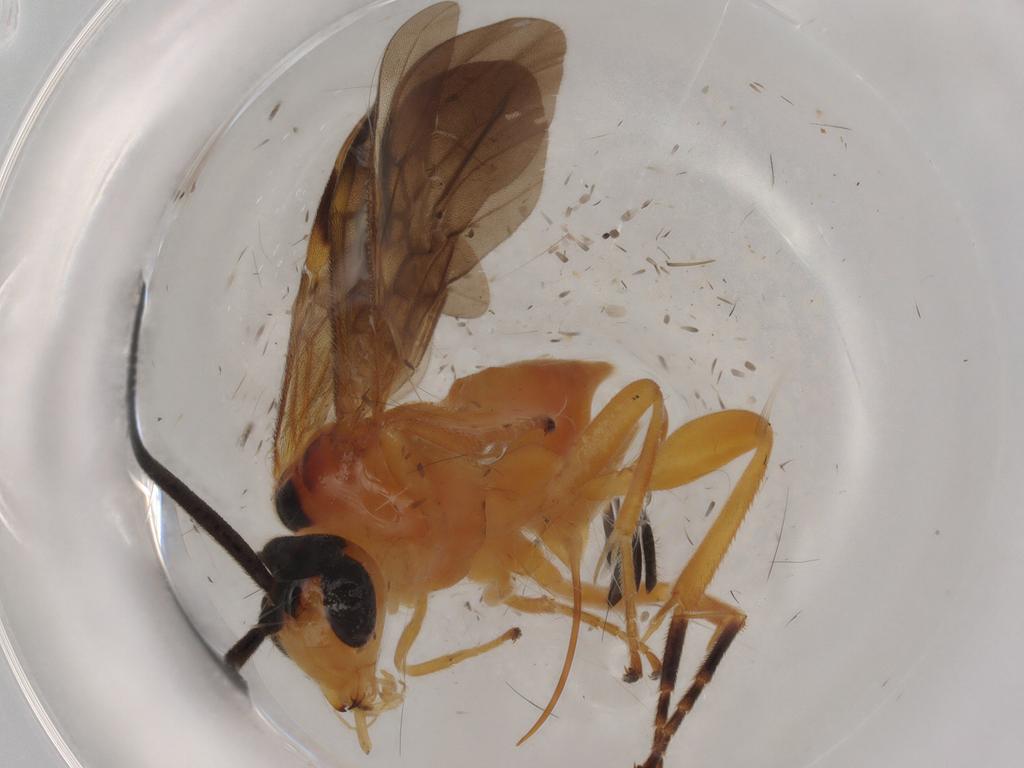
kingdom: Animalia
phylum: Arthropoda
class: Insecta
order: Hymenoptera
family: Braconidae
